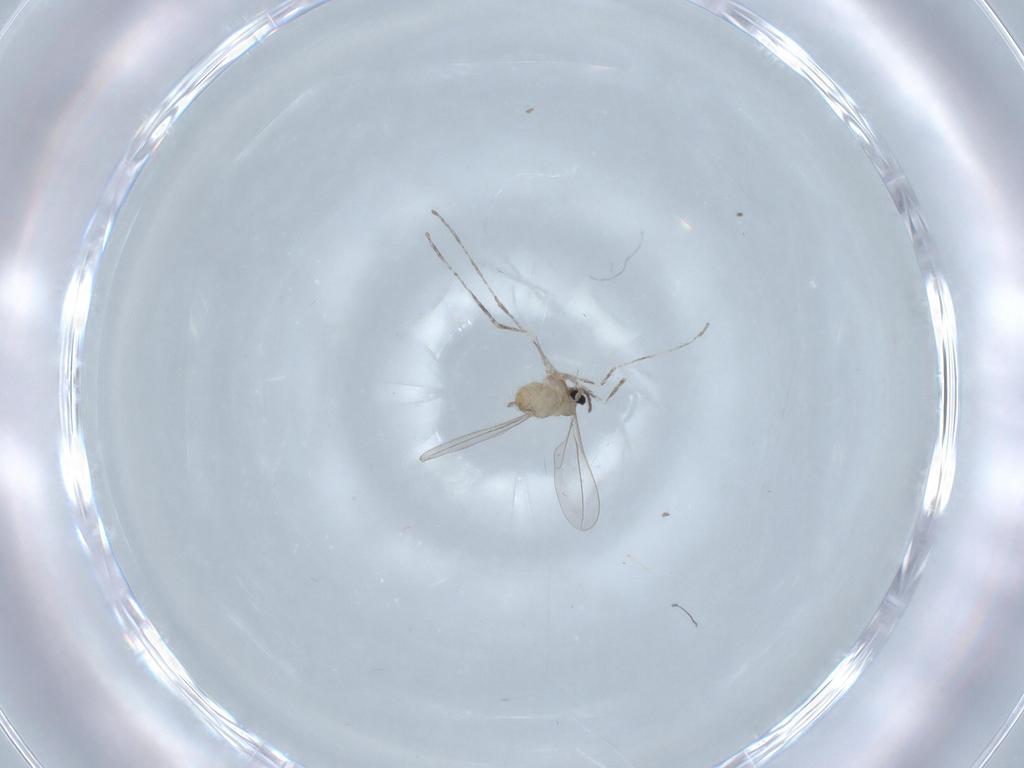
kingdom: Animalia
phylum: Arthropoda
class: Insecta
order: Diptera
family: Cecidomyiidae
